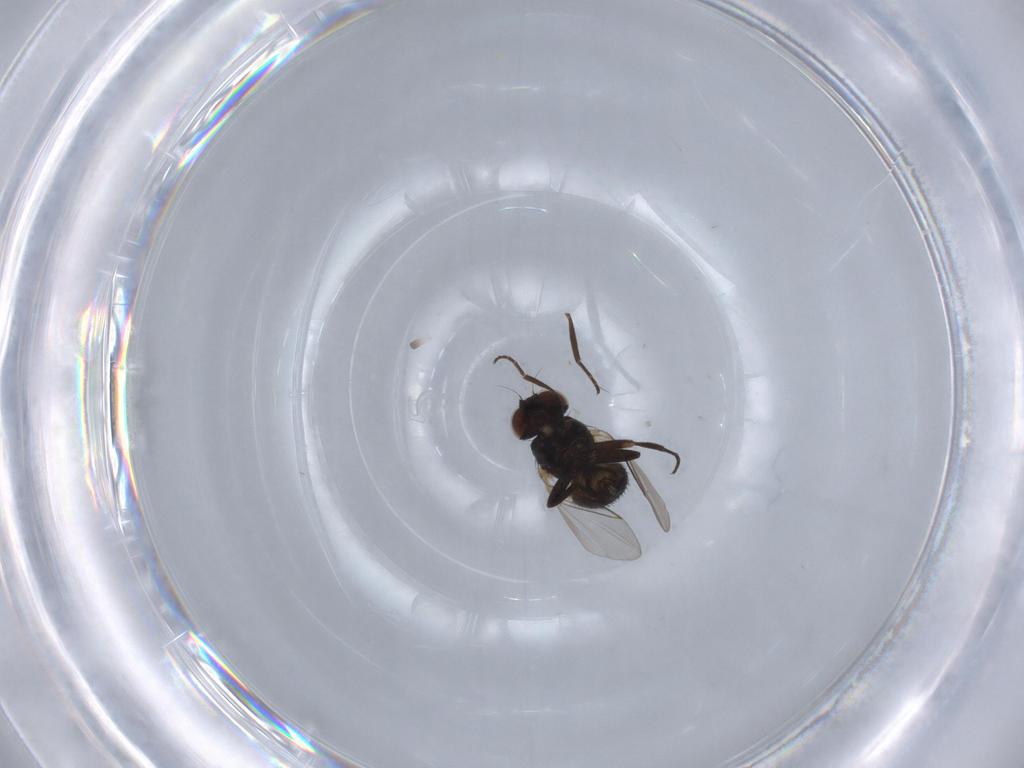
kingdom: Animalia
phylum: Arthropoda
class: Insecta
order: Diptera
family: Agromyzidae
